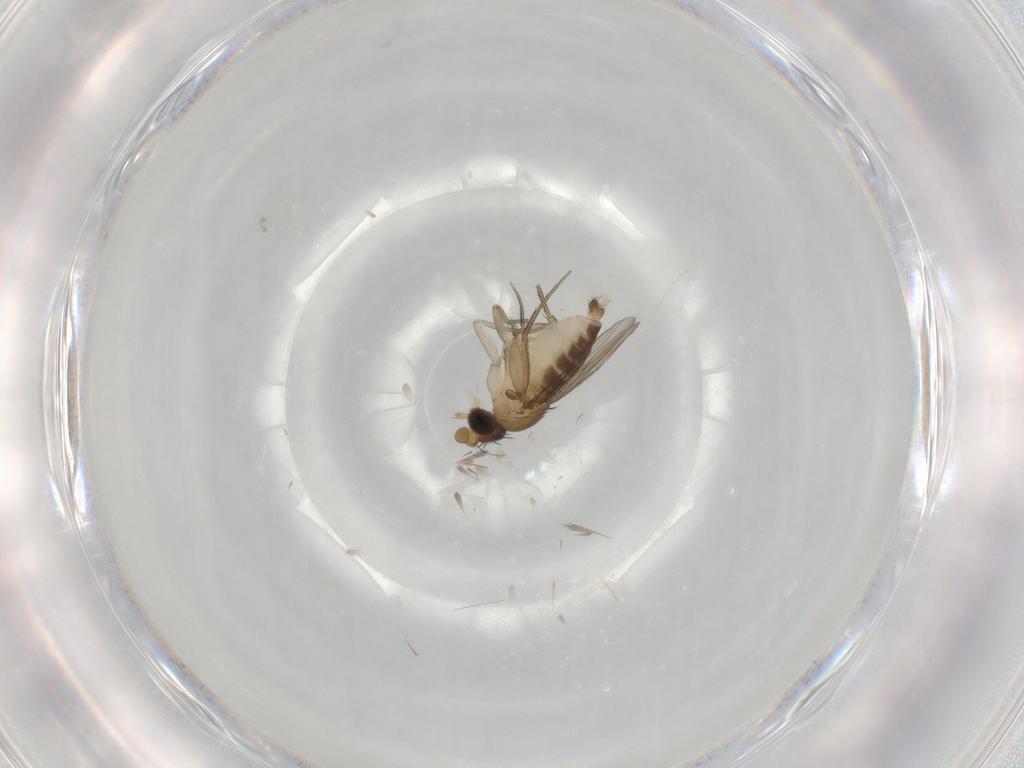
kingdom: Animalia
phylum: Arthropoda
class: Insecta
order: Diptera
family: Phoridae
